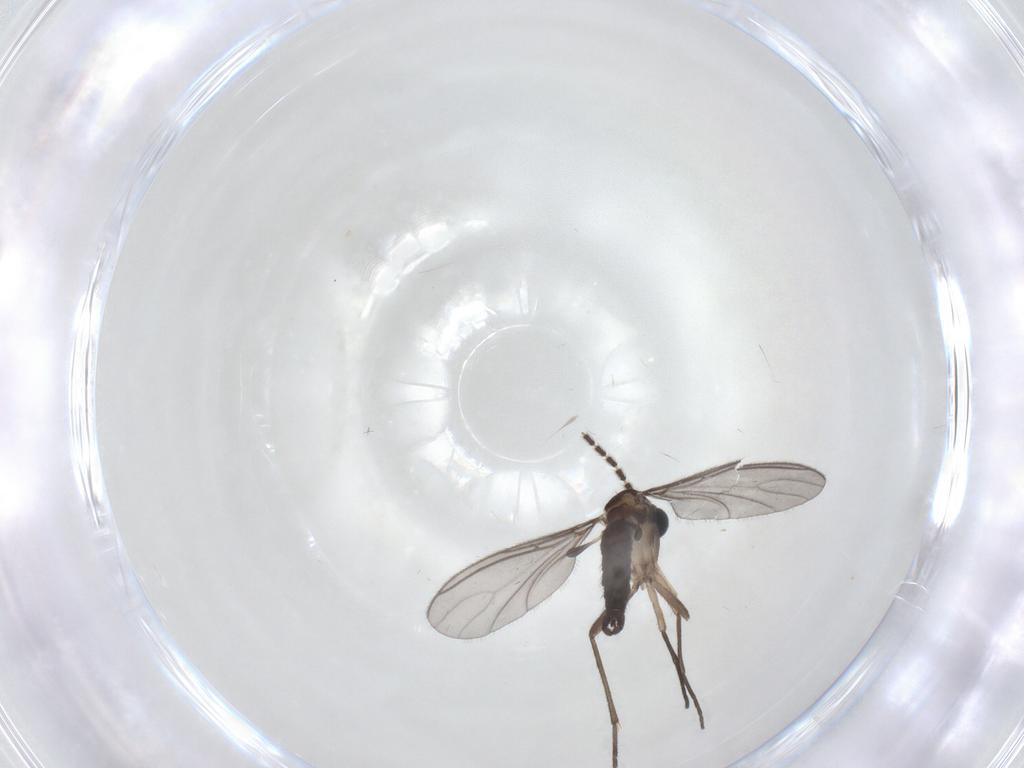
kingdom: Animalia
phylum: Arthropoda
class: Insecta
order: Diptera
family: Sciaridae
